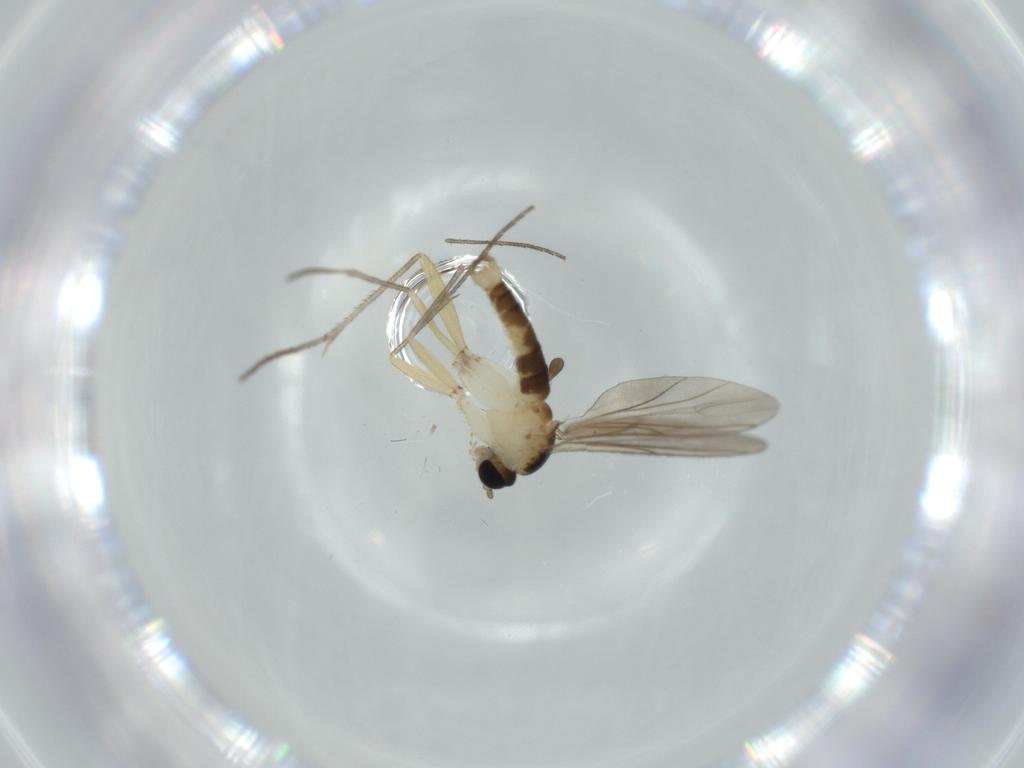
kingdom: Animalia
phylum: Arthropoda
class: Insecta
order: Diptera
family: Sciaridae
